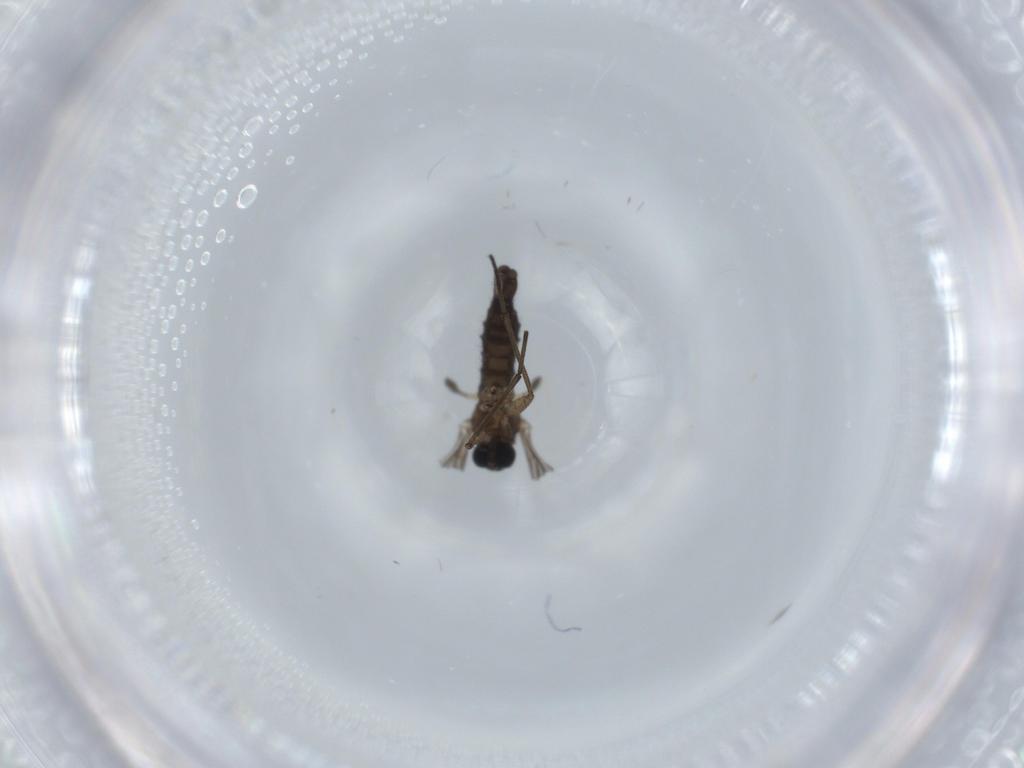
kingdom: Animalia
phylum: Arthropoda
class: Insecta
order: Diptera
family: Sciaridae
